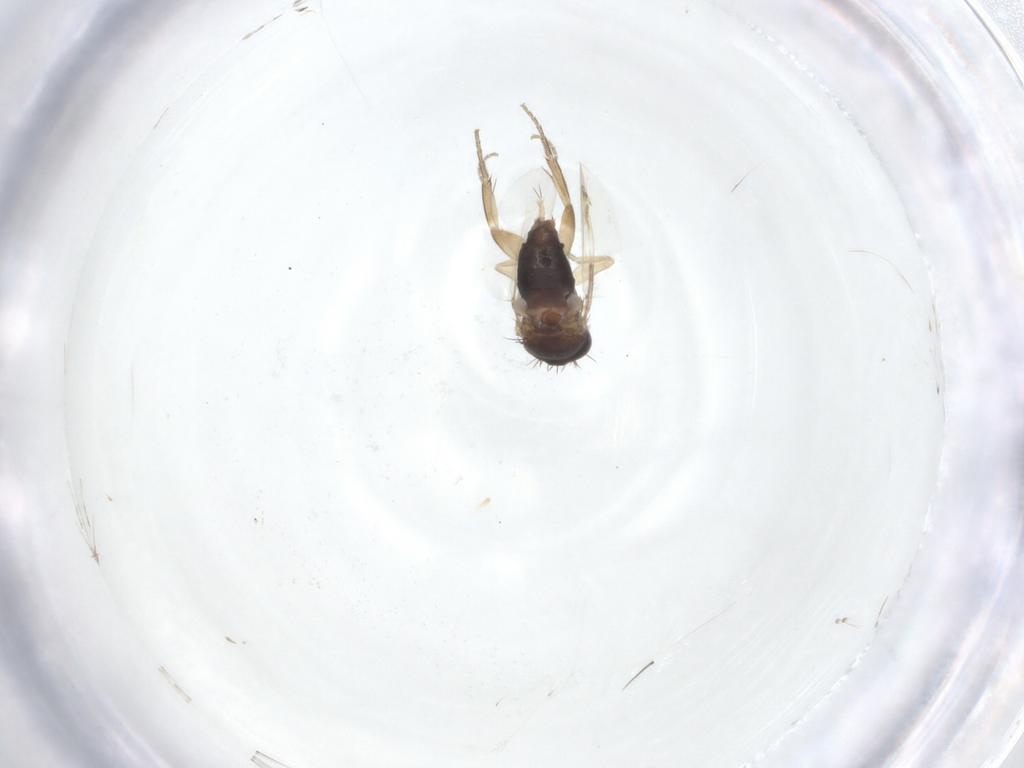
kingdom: Animalia
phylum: Arthropoda
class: Insecta
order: Diptera
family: Phoridae
